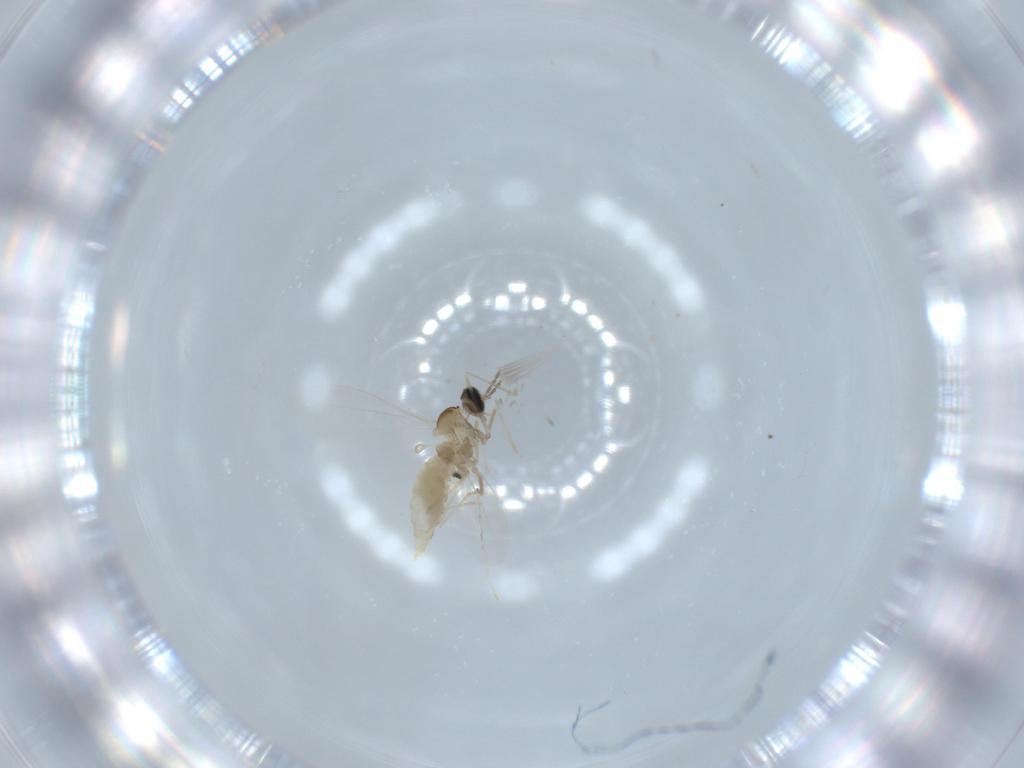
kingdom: Animalia
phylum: Arthropoda
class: Insecta
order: Diptera
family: Cecidomyiidae
